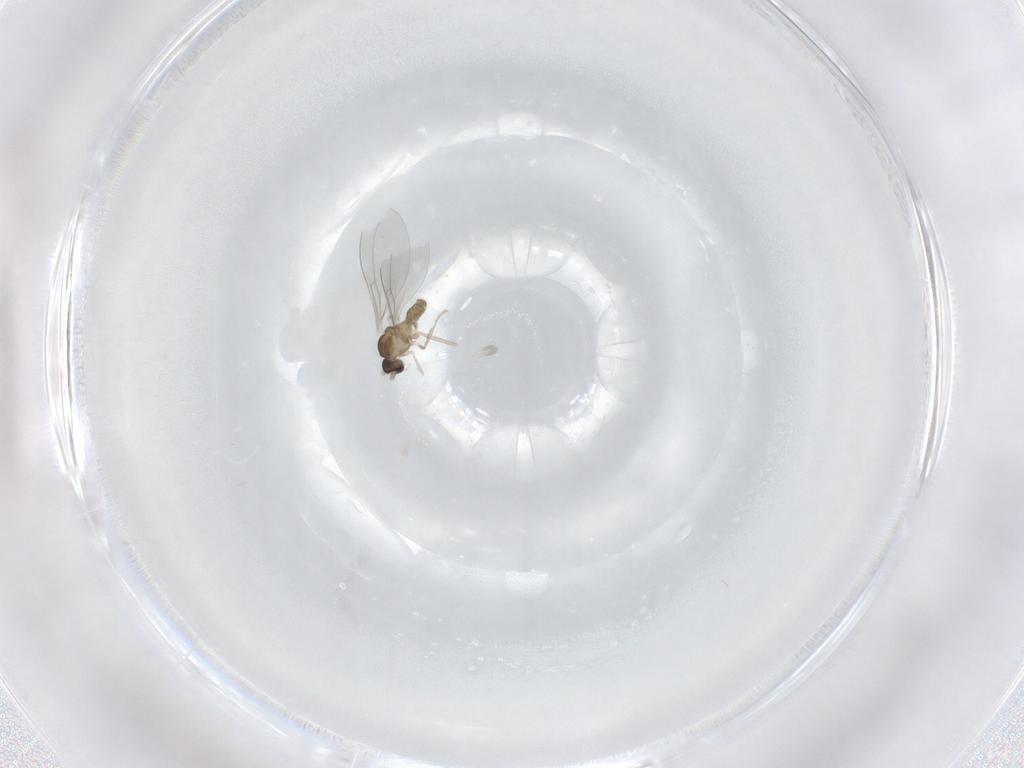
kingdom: Animalia
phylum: Arthropoda
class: Insecta
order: Diptera
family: Cecidomyiidae
